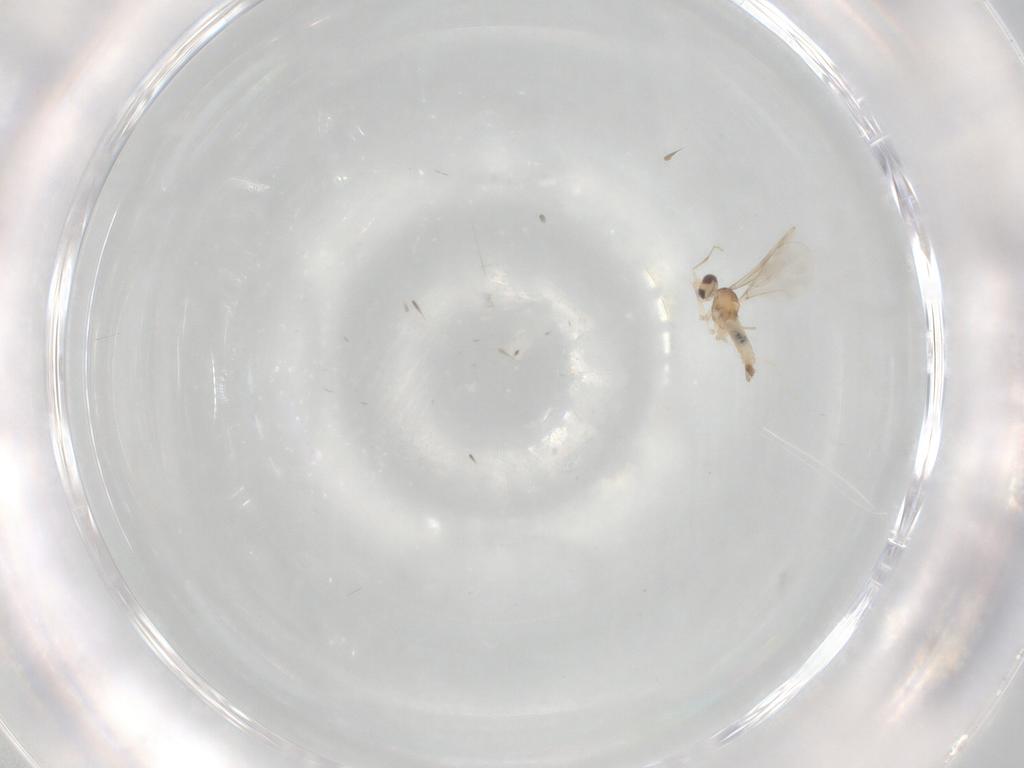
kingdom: Animalia
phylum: Arthropoda
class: Insecta
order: Diptera
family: Cecidomyiidae
